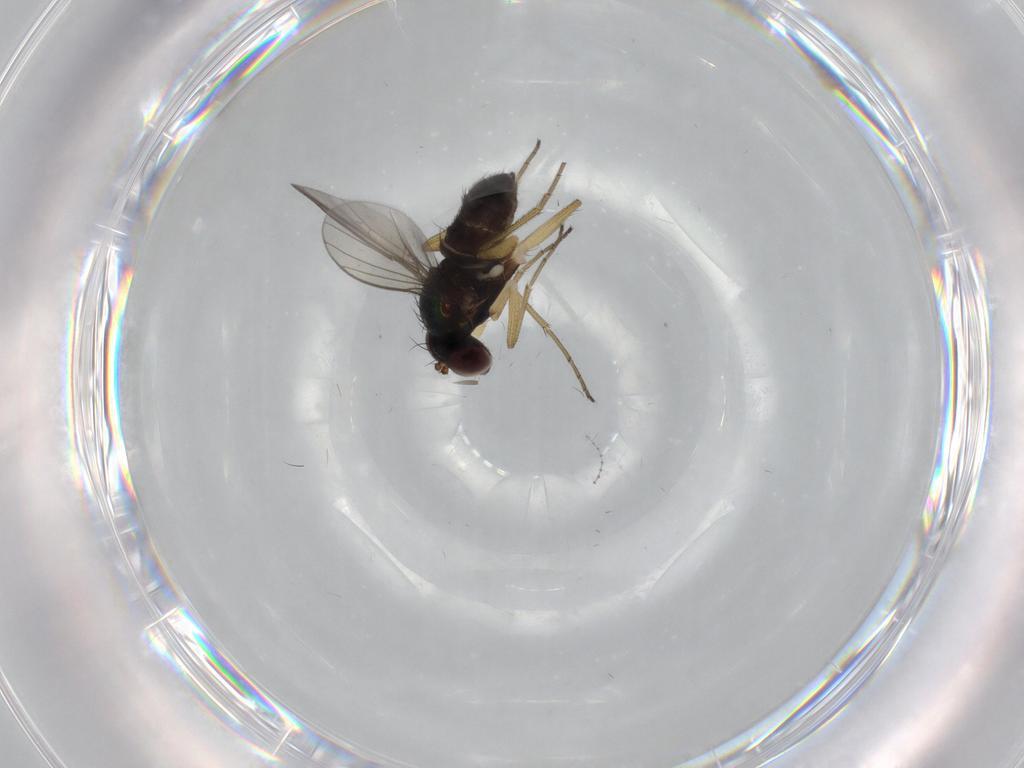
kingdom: Animalia
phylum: Arthropoda
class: Insecta
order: Diptera
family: Dolichopodidae
